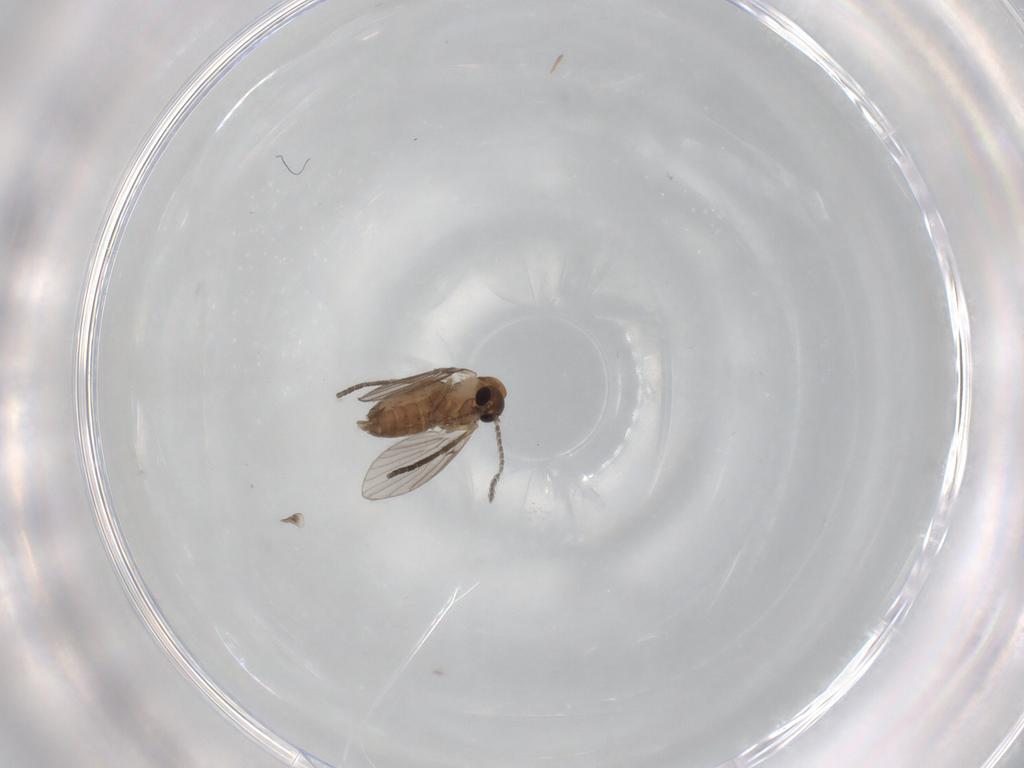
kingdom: Animalia
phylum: Arthropoda
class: Insecta
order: Diptera
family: Psychodidae
